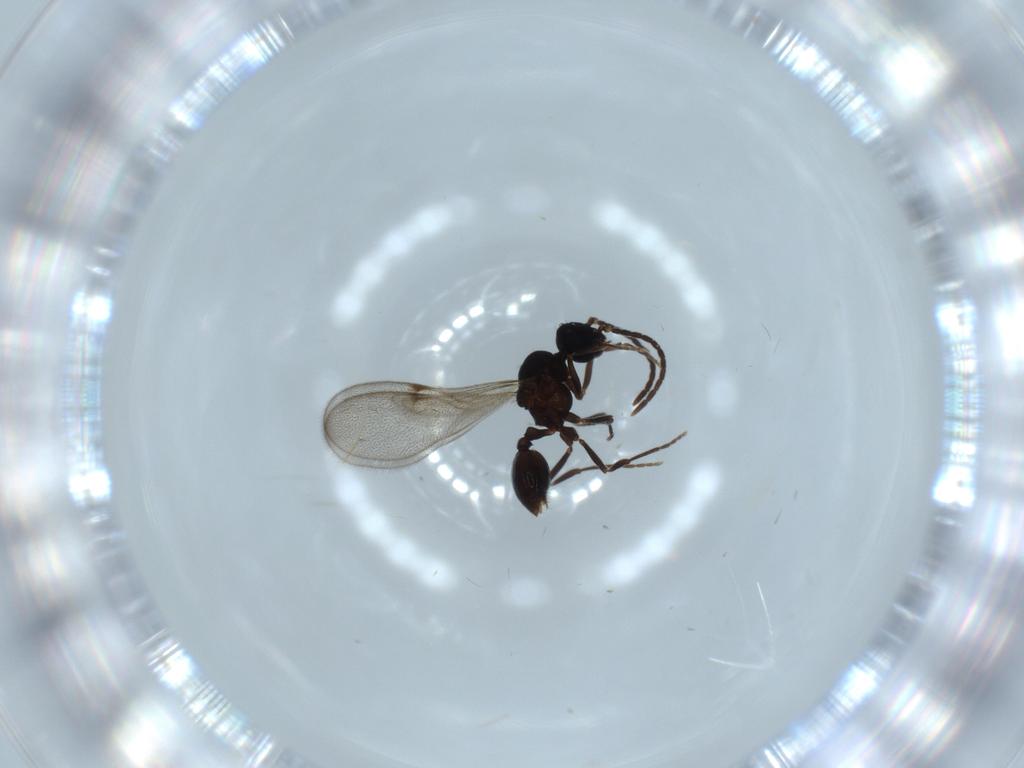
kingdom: Animalia
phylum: Arthropoda
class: Insecta
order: Hymenoptera
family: Formicidae
